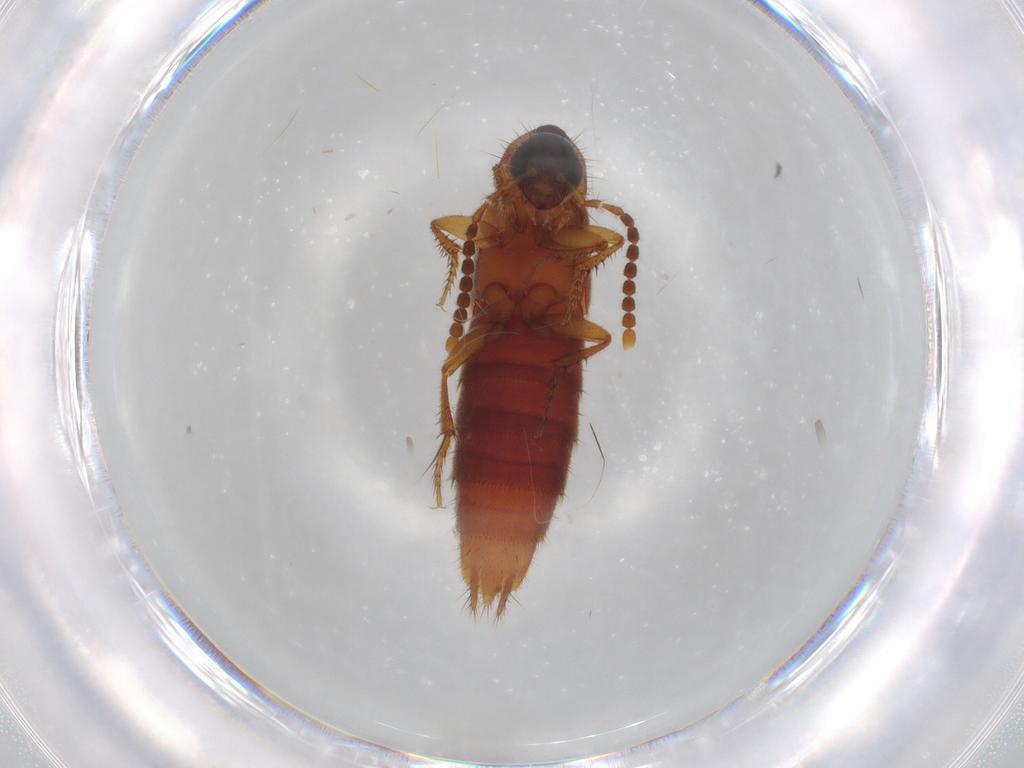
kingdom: Animalia
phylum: Arthropoda
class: Insecta
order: Coleoptera
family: Staphylinidae
